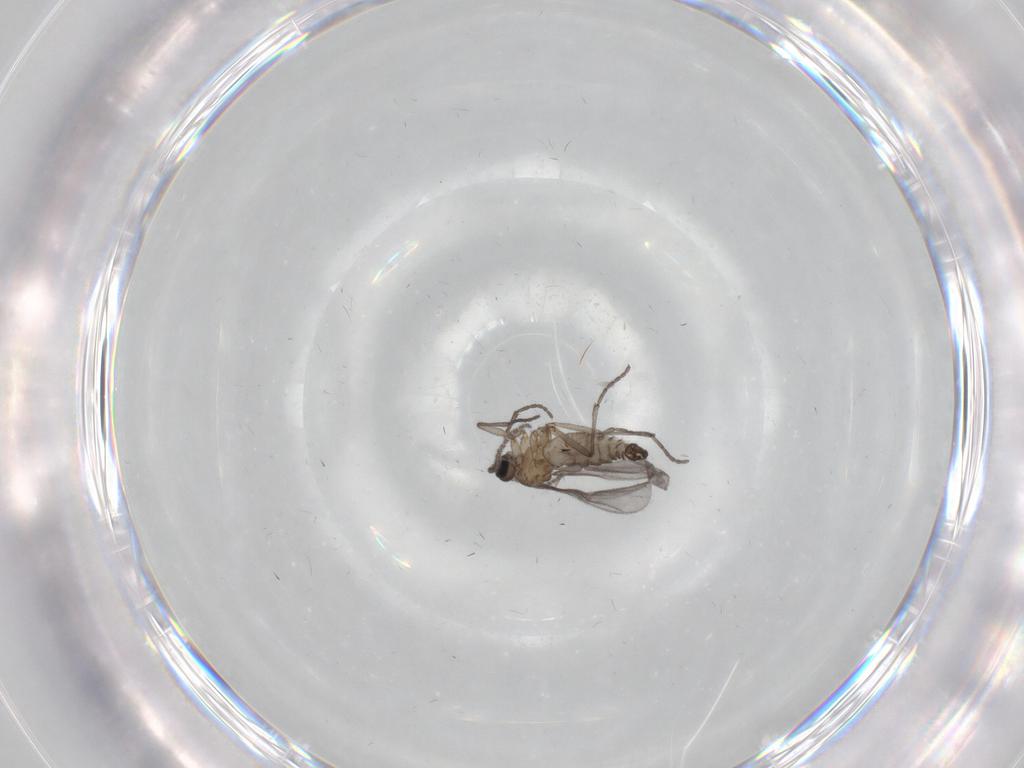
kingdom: Animalia
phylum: Arthropoda
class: Insecta
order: Diptera
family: Sciaridae
